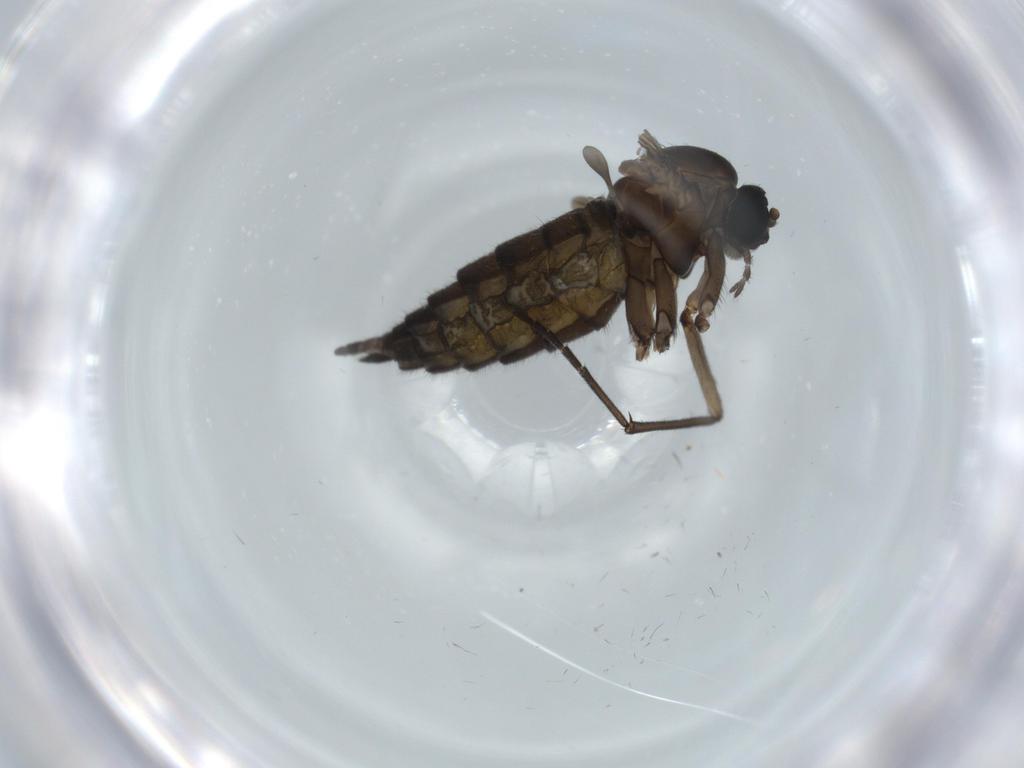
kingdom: Animalia
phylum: Arthropoda
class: Insecta
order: Diptera
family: Sciaridae
